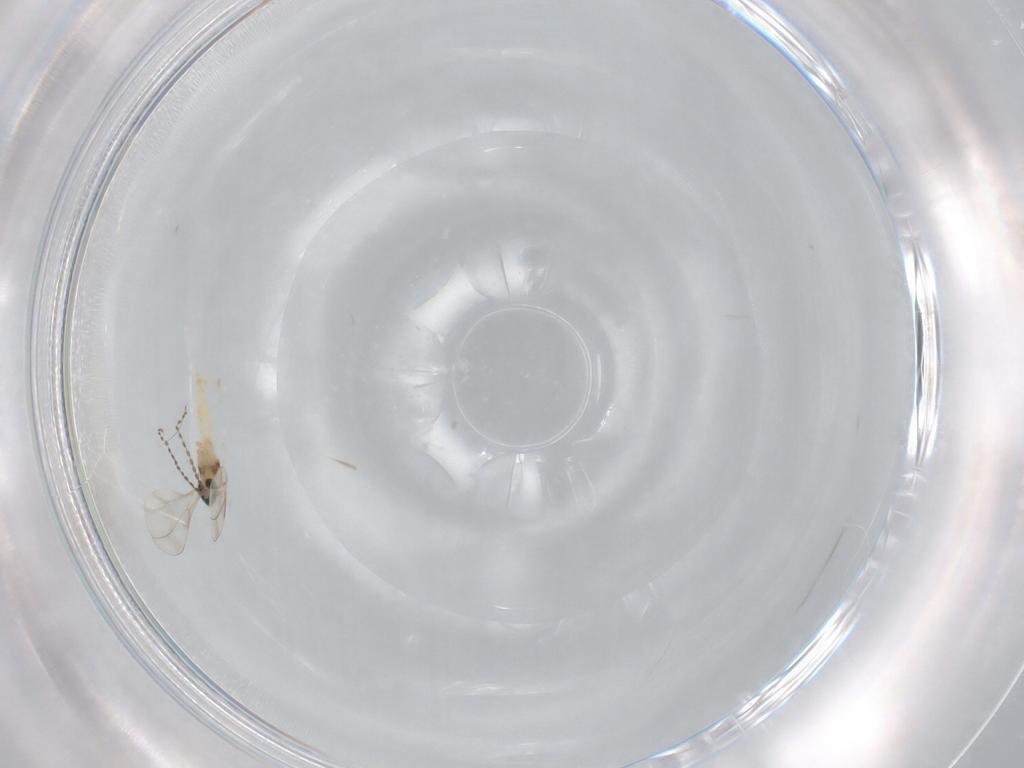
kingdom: Animalia
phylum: Arthropoda
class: Insecta
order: Diptera
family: Cecidomyiidae
